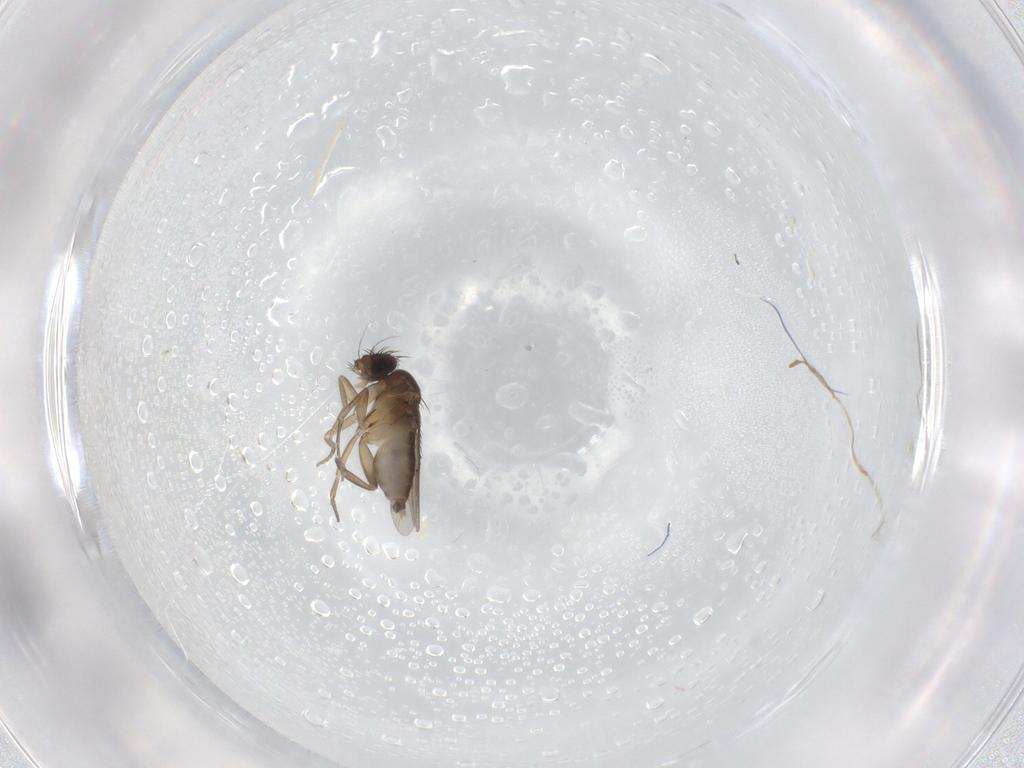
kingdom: Animalia
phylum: Arthropoda
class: Insecta
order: Diptera
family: Phoridae
